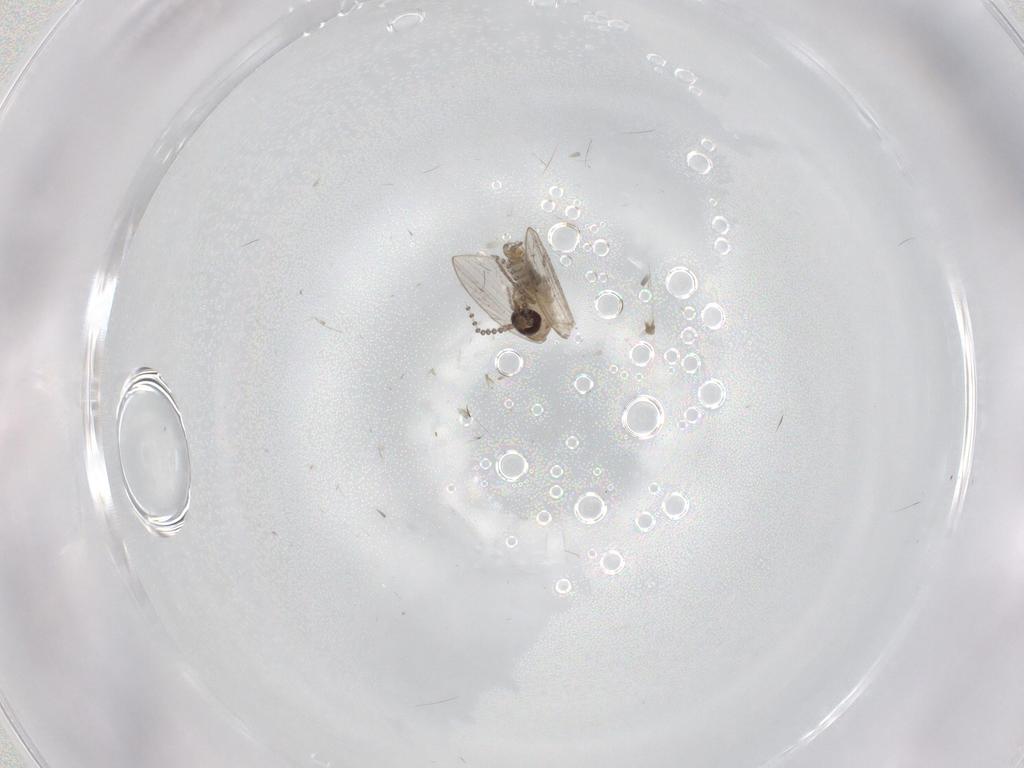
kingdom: Animalia
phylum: Arthropoda
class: Insecta
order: Diptera
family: Psychodidae
